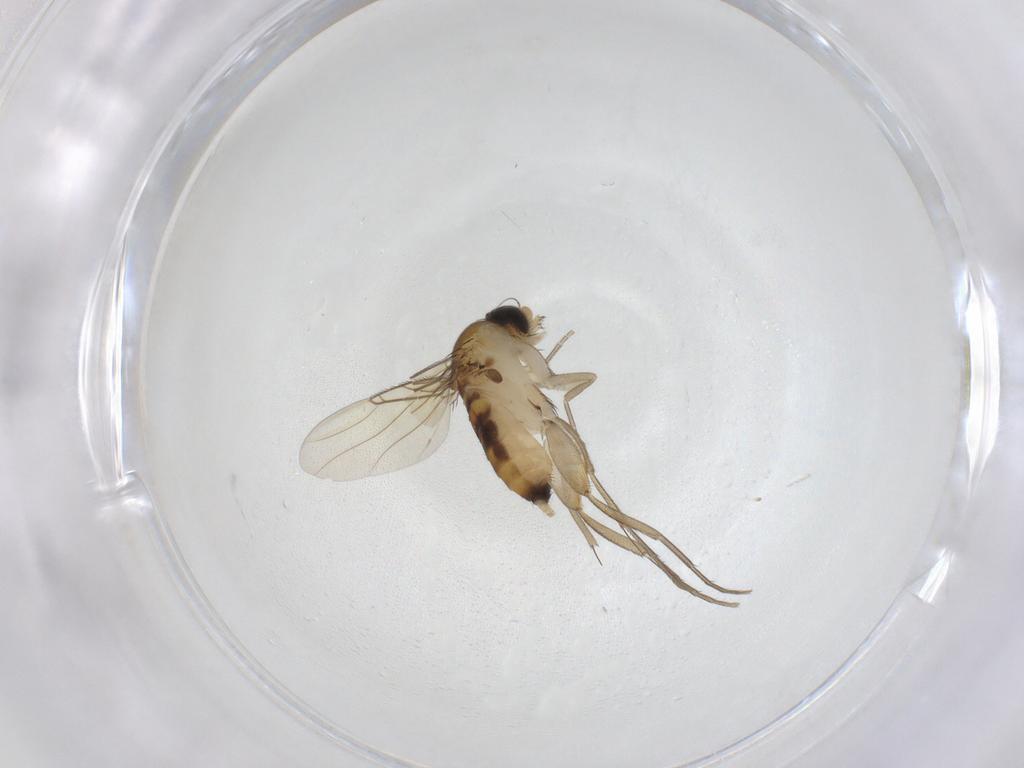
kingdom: Animalia
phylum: Arthropoda
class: Insecta
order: Diptera
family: Phoridae
